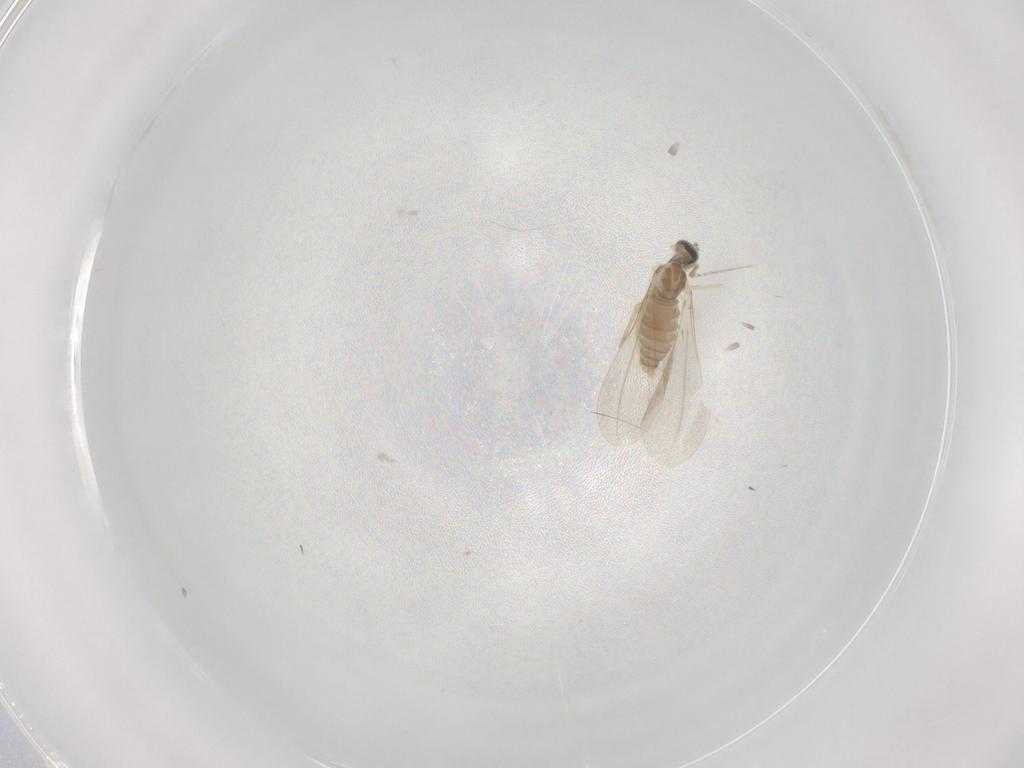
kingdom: Animalia
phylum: Arthropoda
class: Insecta
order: Diptera
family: Cecidomyiidae
